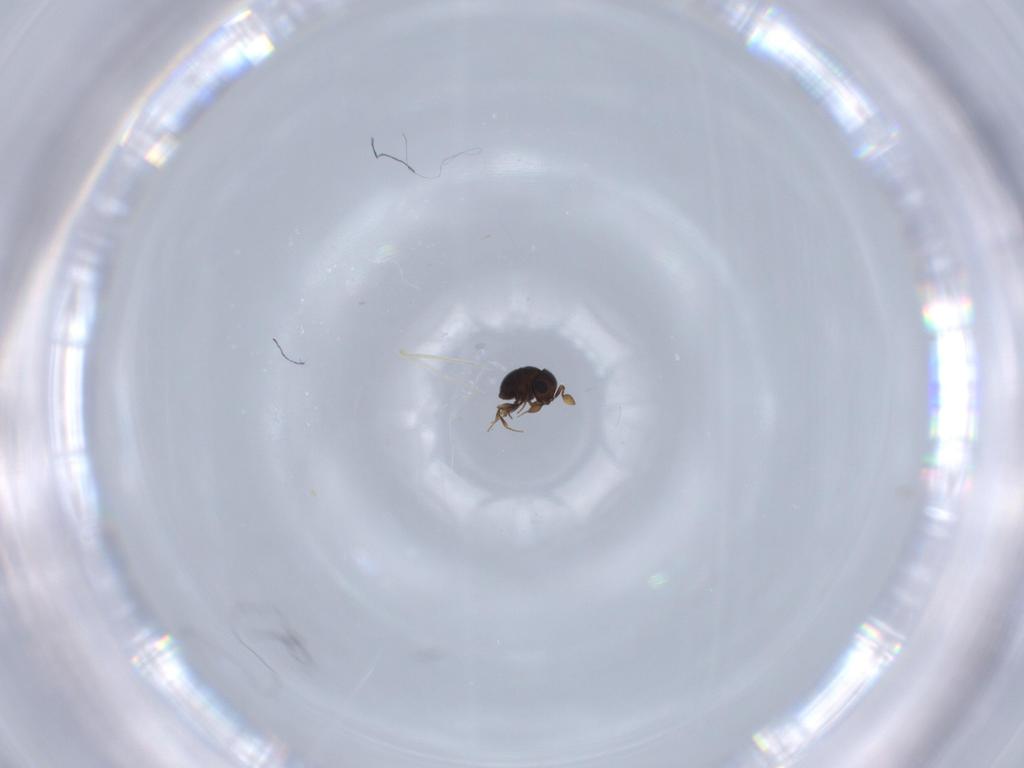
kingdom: Animalia
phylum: Arthropoda
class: Insecta
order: Hymenoptera
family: Scelionidae
